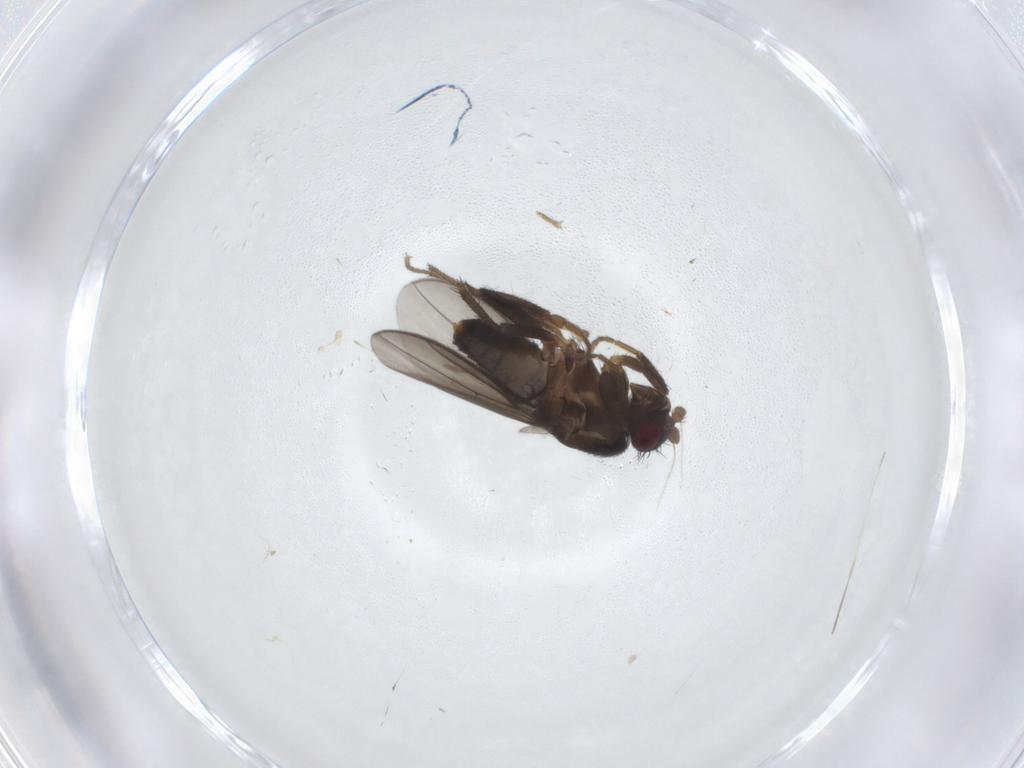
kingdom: Animalia
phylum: Arthropoda
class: Insecta
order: Diptera
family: Sphaeroceridae
